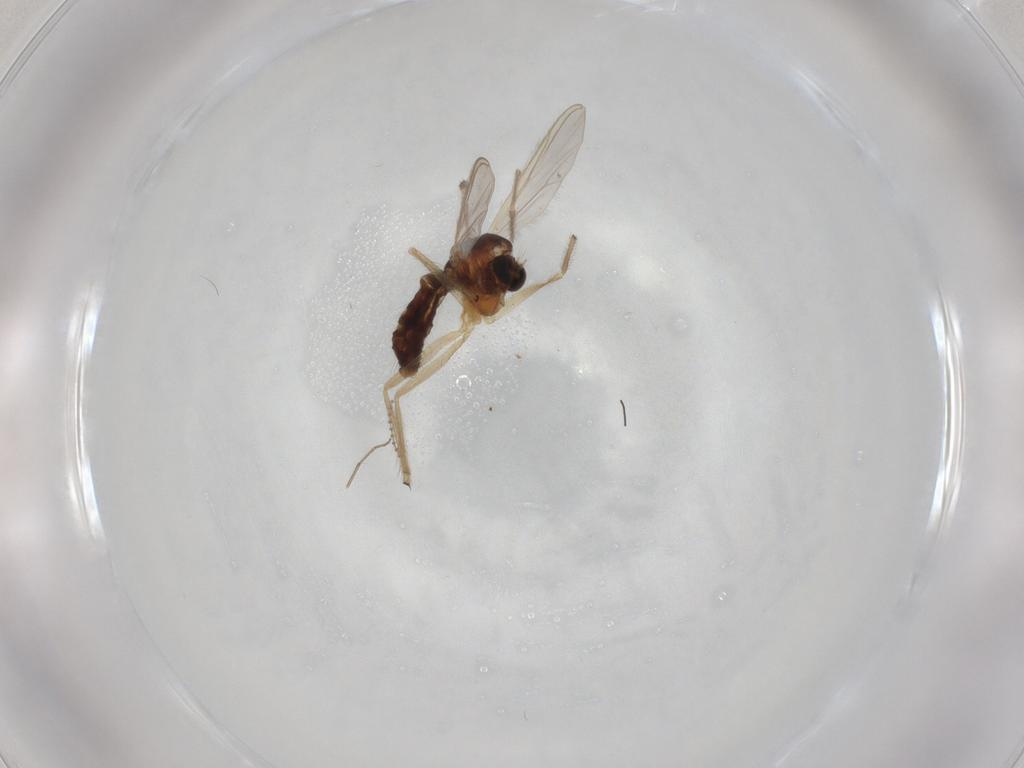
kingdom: Animalia
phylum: Arthropoda
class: Insecta
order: Diptera
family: Chironomidae
